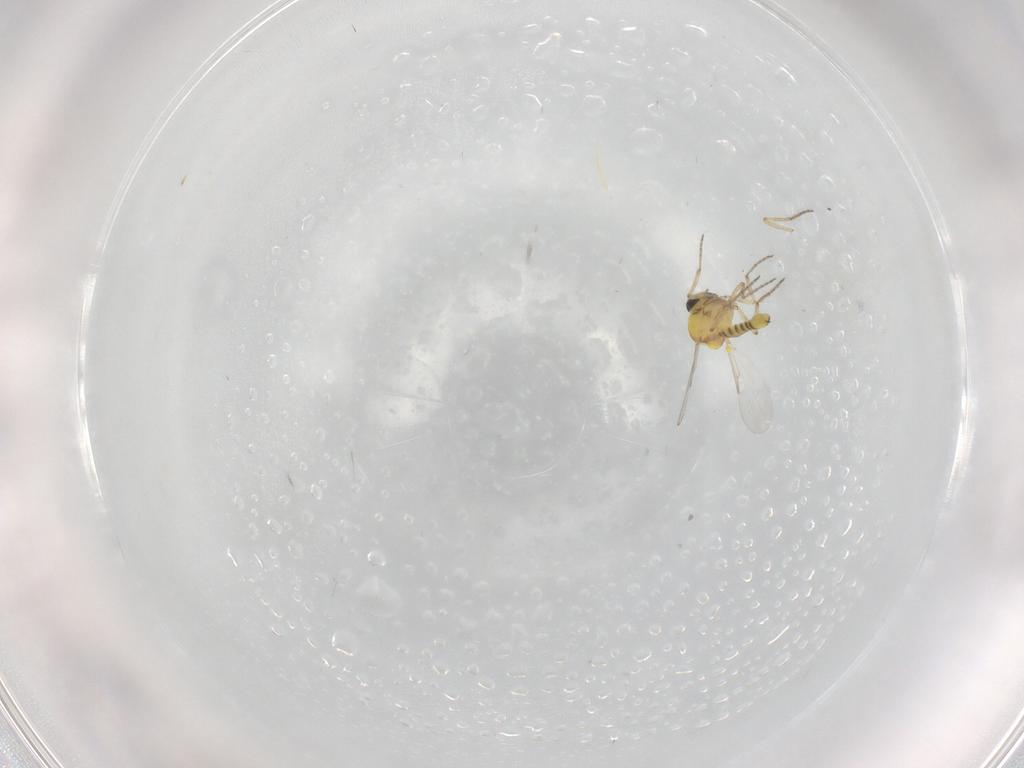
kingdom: Animalia
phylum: Arthropoda
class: Insecta
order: Diptera
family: Ceratopogonidae
